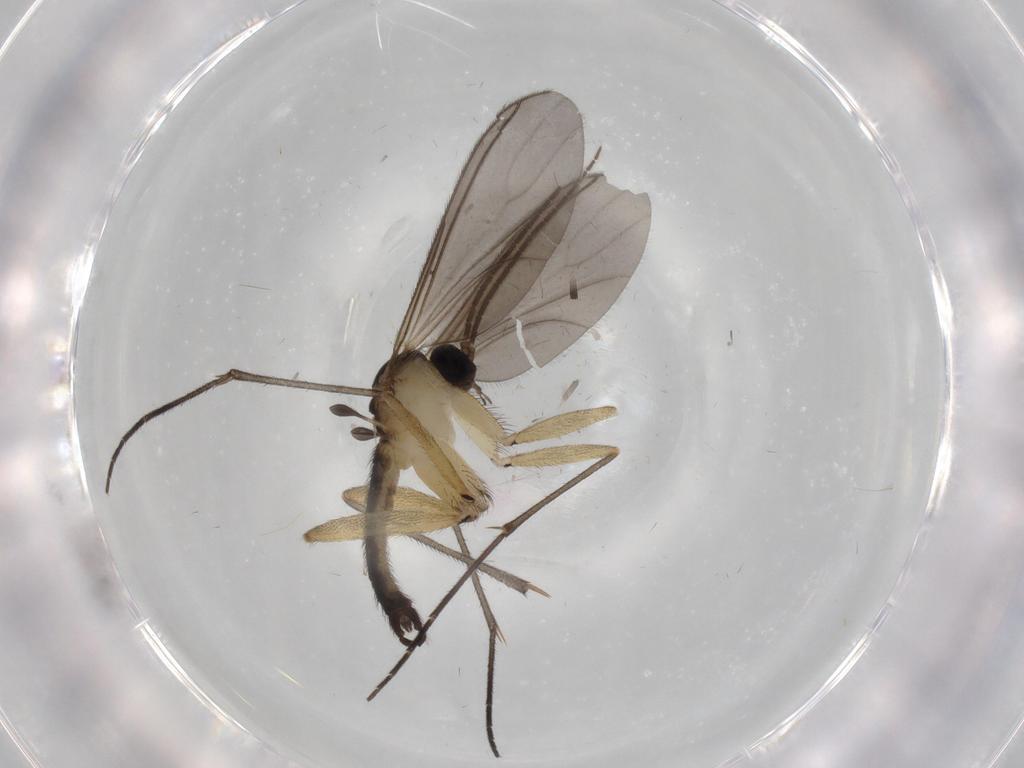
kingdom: Animalia
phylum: Arthropoda
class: Insecta
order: Diptera
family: Sciaridae
